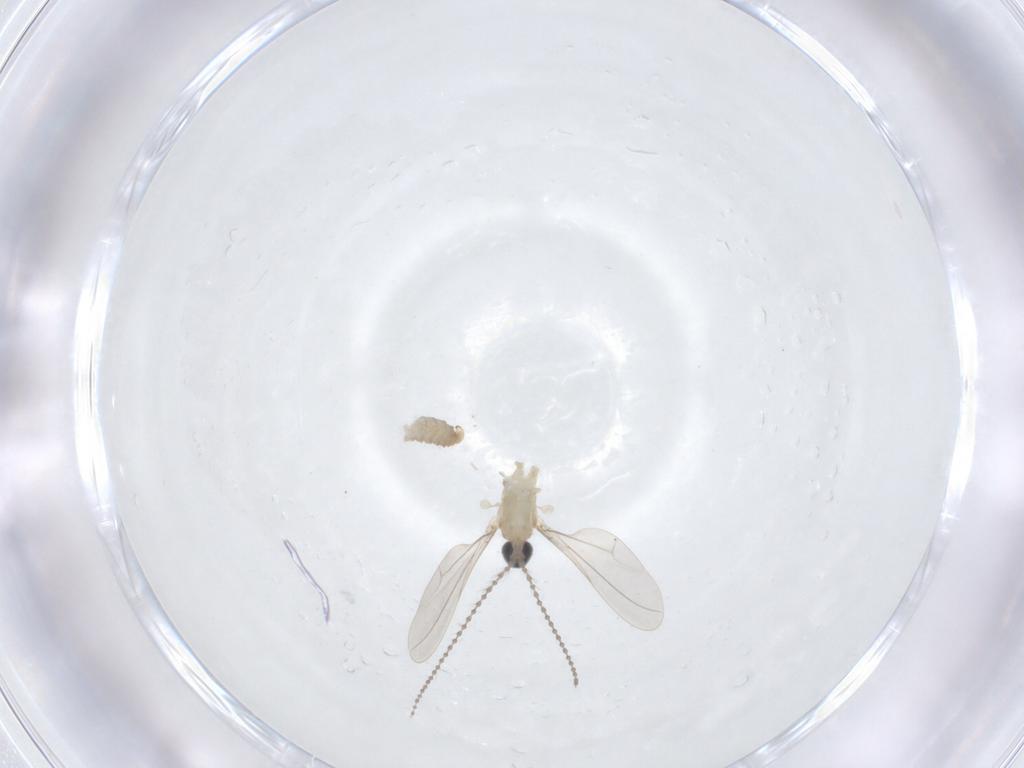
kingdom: Animalia
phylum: Arthropoda
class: Insecta
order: Diptera
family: Cecidomyiidae
